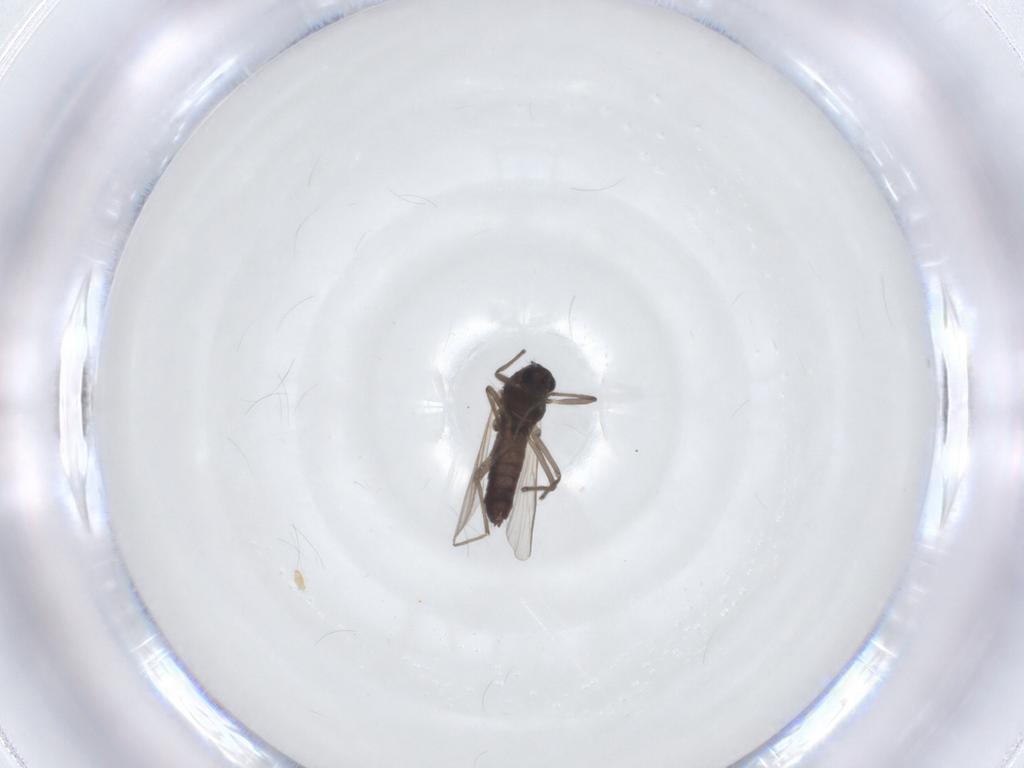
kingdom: Animalia
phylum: Arthropoda
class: Insecta
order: Diptera
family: Chironomidae
